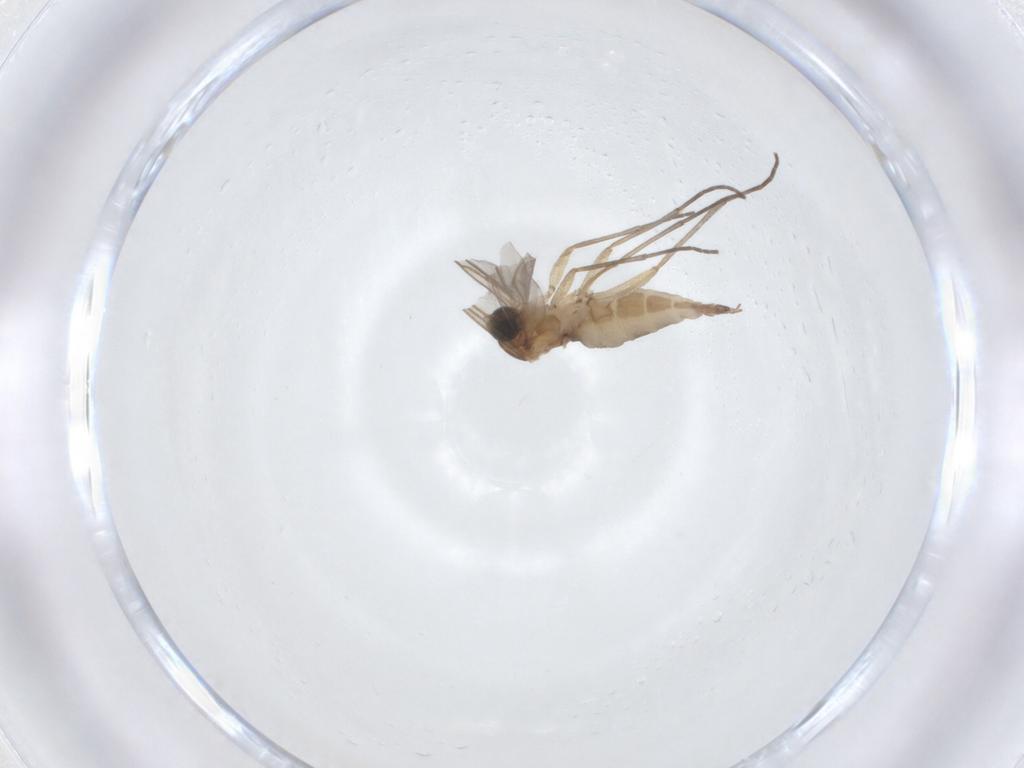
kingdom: Animalia
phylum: Arthropoda
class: Insecta
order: Diptera
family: Sciaridae
